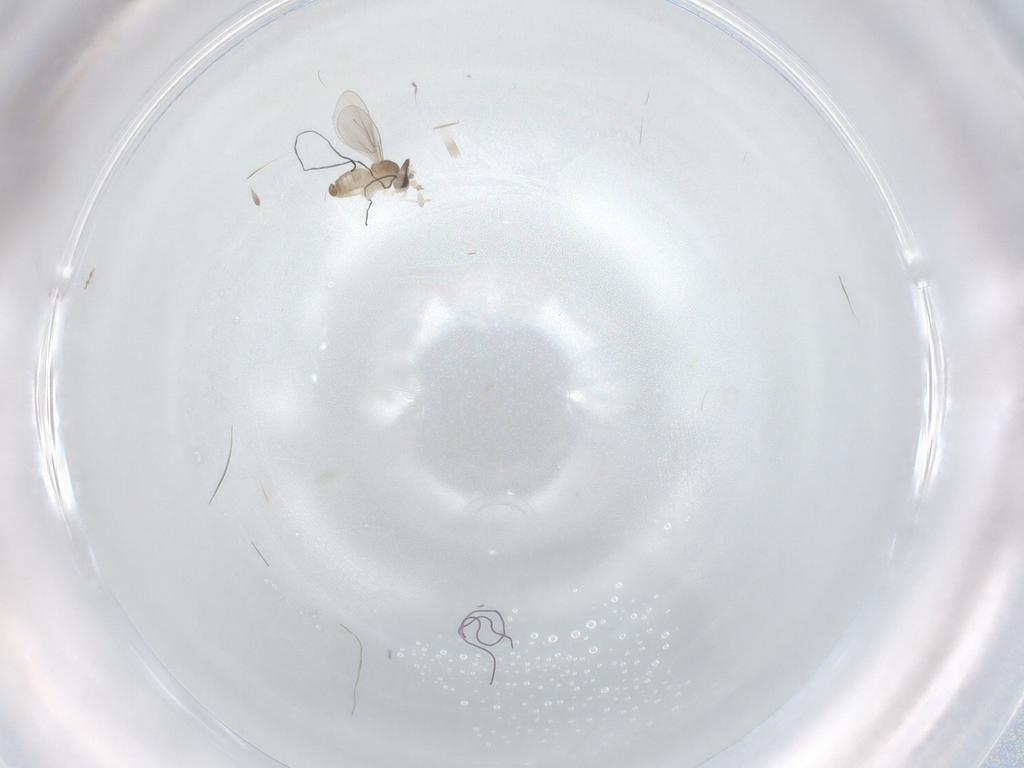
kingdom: Animalia
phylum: Arthropoda
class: Insecta
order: Diptera
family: Cecidomyiidae
